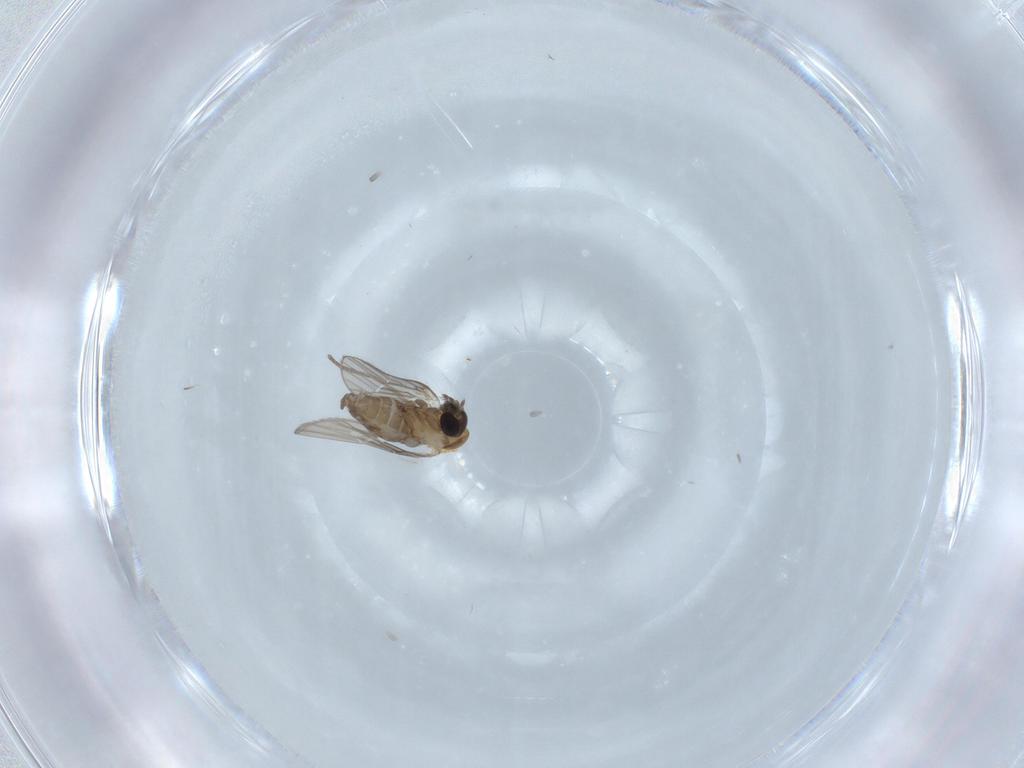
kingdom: Animalia
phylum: Arthropoda
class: Insecta
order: Diptera
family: Psychodidae
